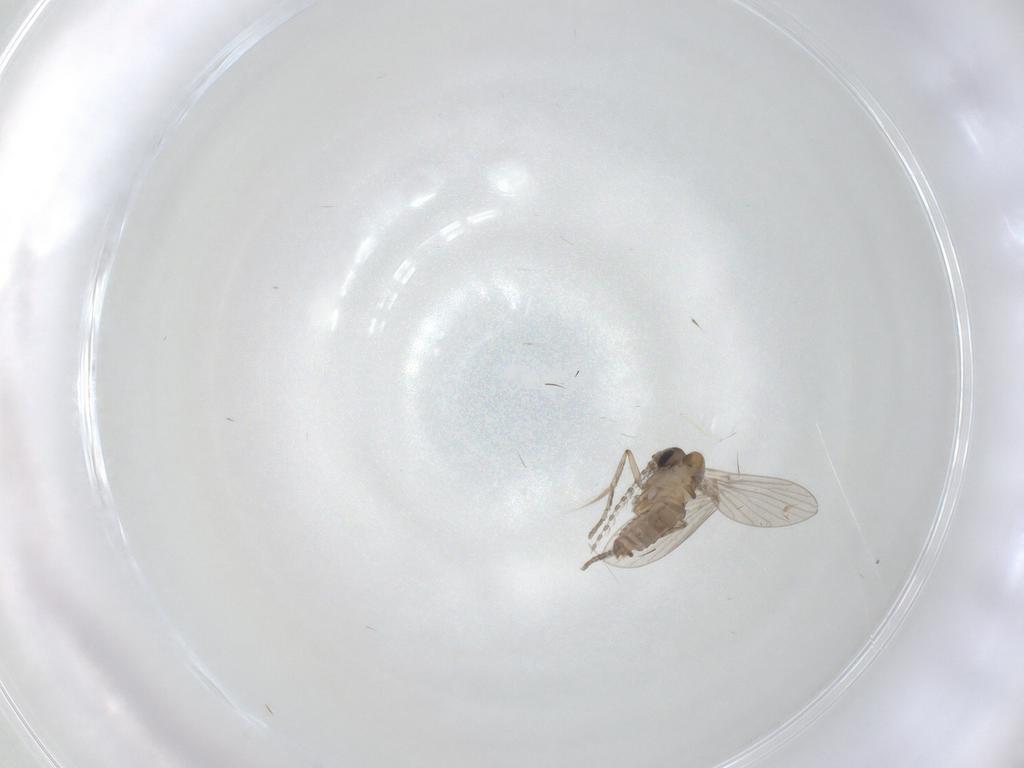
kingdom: Animalia
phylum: Arthropoda
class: Insecta
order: Diptera
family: Psychodidae
